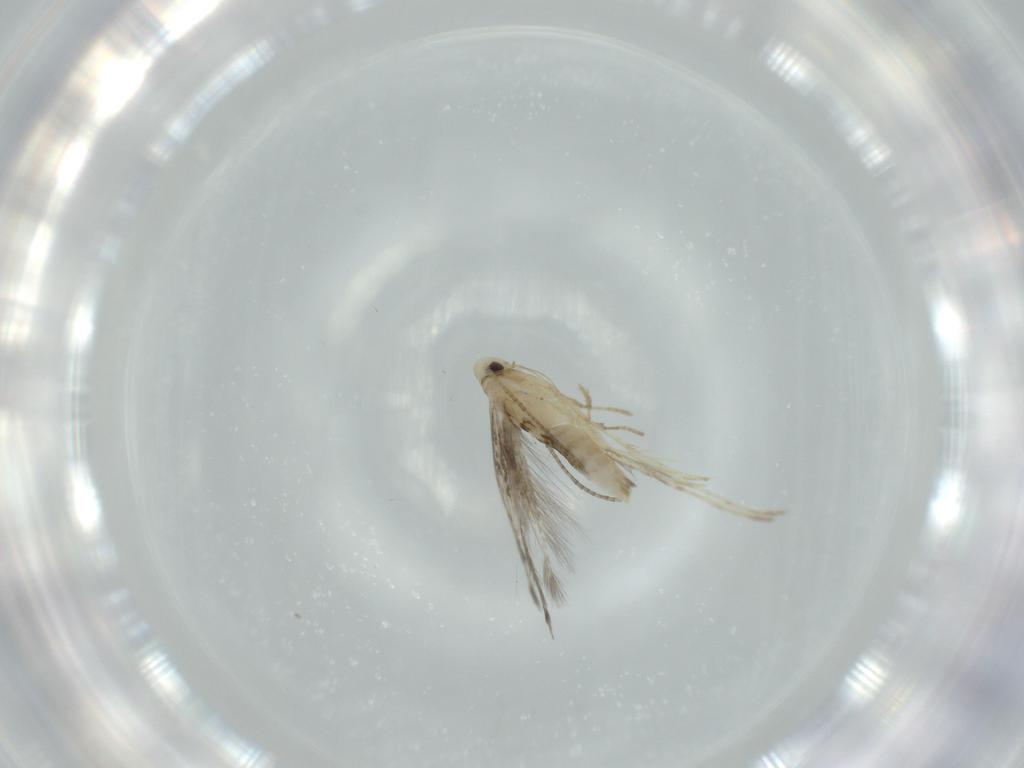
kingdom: Animalia
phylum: Arthropoda
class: Insecta
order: Lepidoptera
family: Gracillariidae
